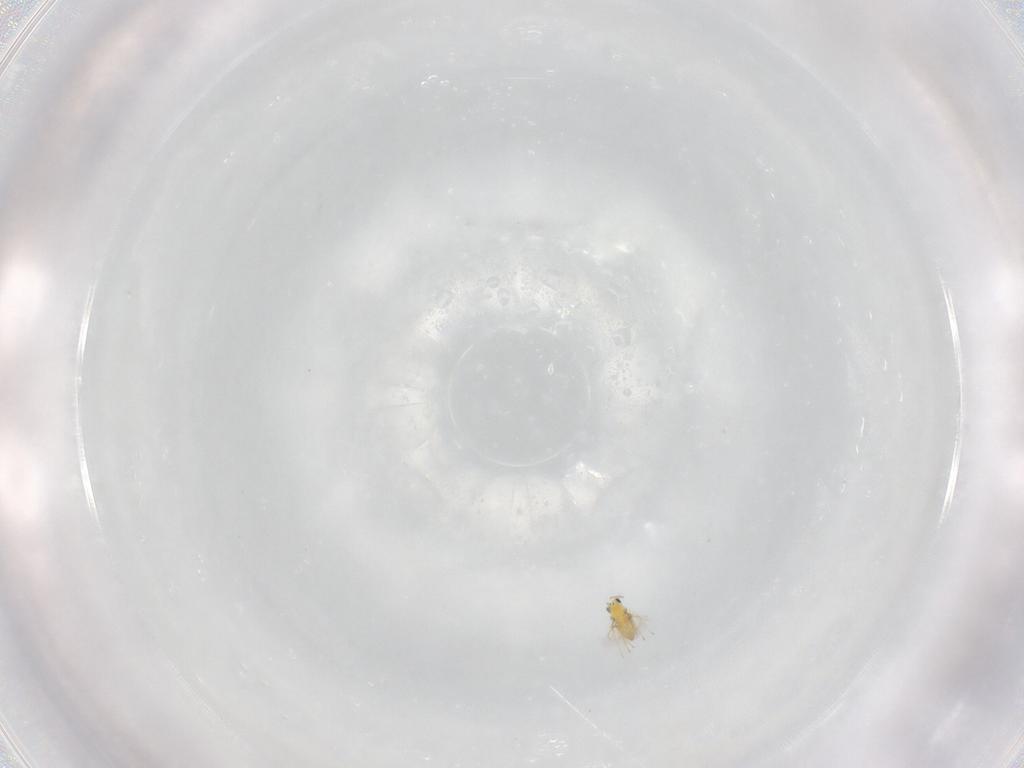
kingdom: Animalia
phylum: Arthropoda
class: Insecta
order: Hymenoptera
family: Trichogrammatidae
